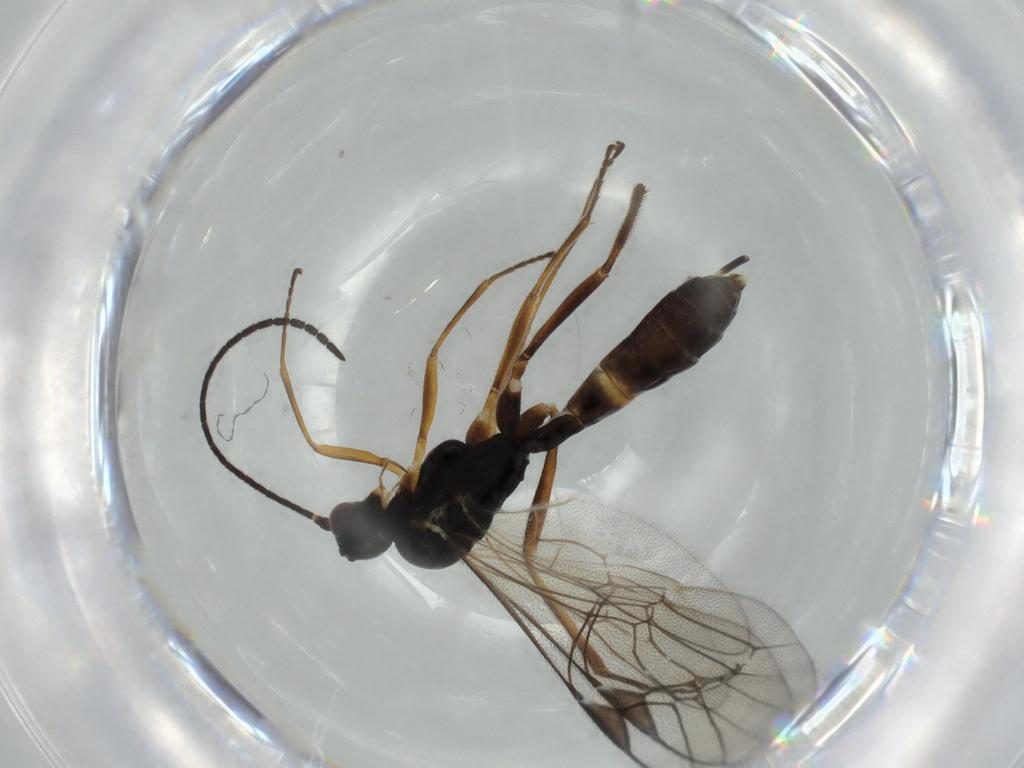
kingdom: Animalia
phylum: Arthropoda
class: Insecta
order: Hymenoptera
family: Ichneumonidae
